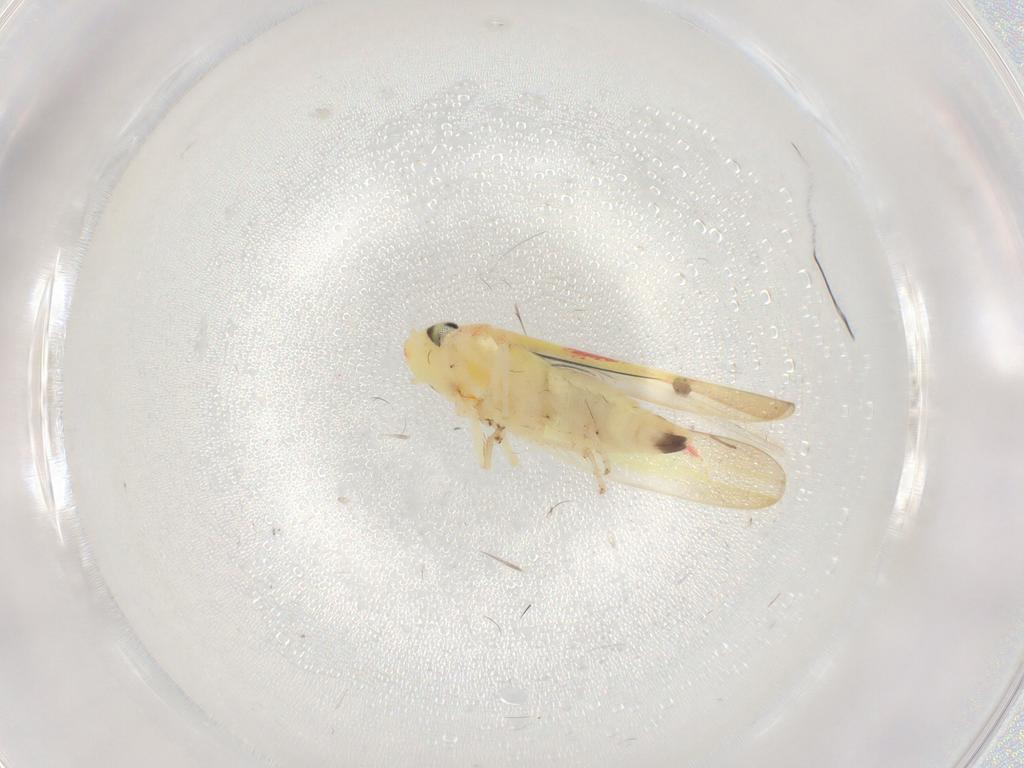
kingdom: Animalia
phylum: Arthropoda
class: Insecta
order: Hemiptera
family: Cicadellidae
